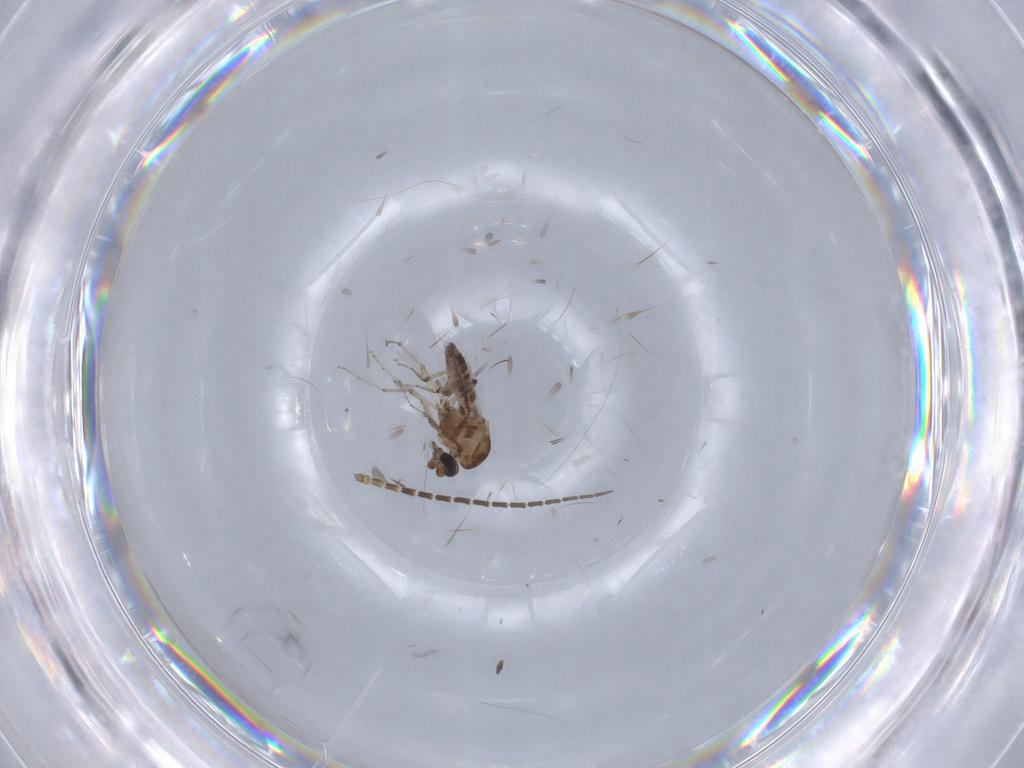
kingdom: Animalia
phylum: Arthropoda
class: Insecta
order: Diptera
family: Sciaridae
